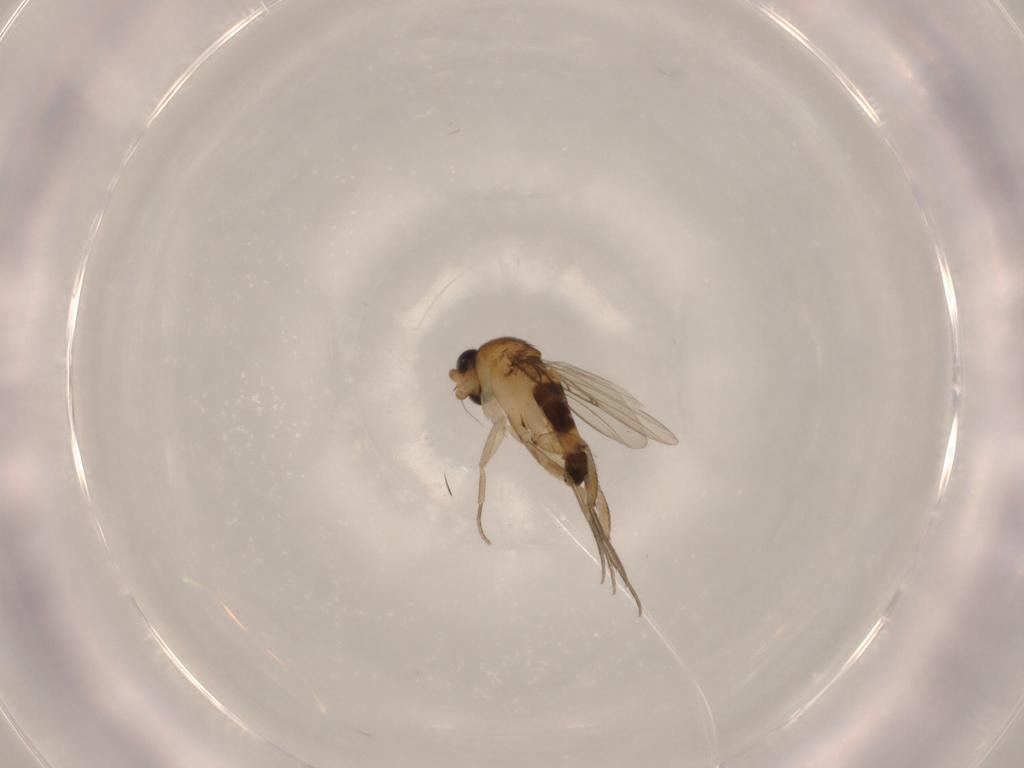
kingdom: Animalia
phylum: Arthropoda
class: Insecta
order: Diptera
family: Phoridae
